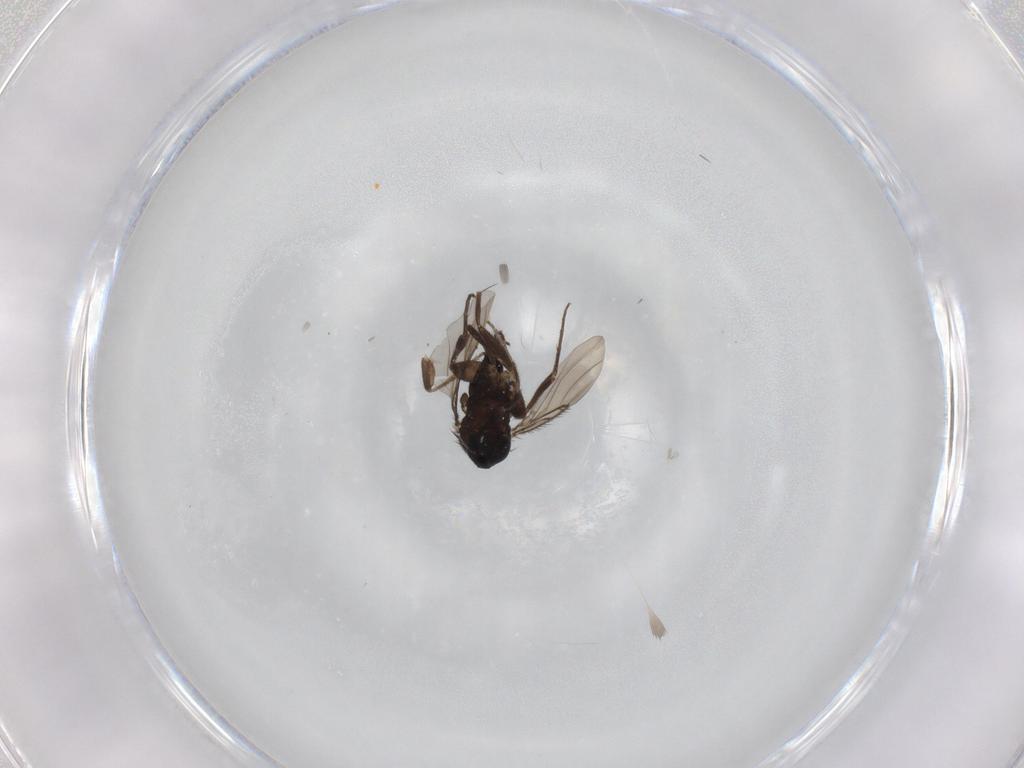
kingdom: Animalia
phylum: Arthropoda
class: Insecta
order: Diptera
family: Phoridae
